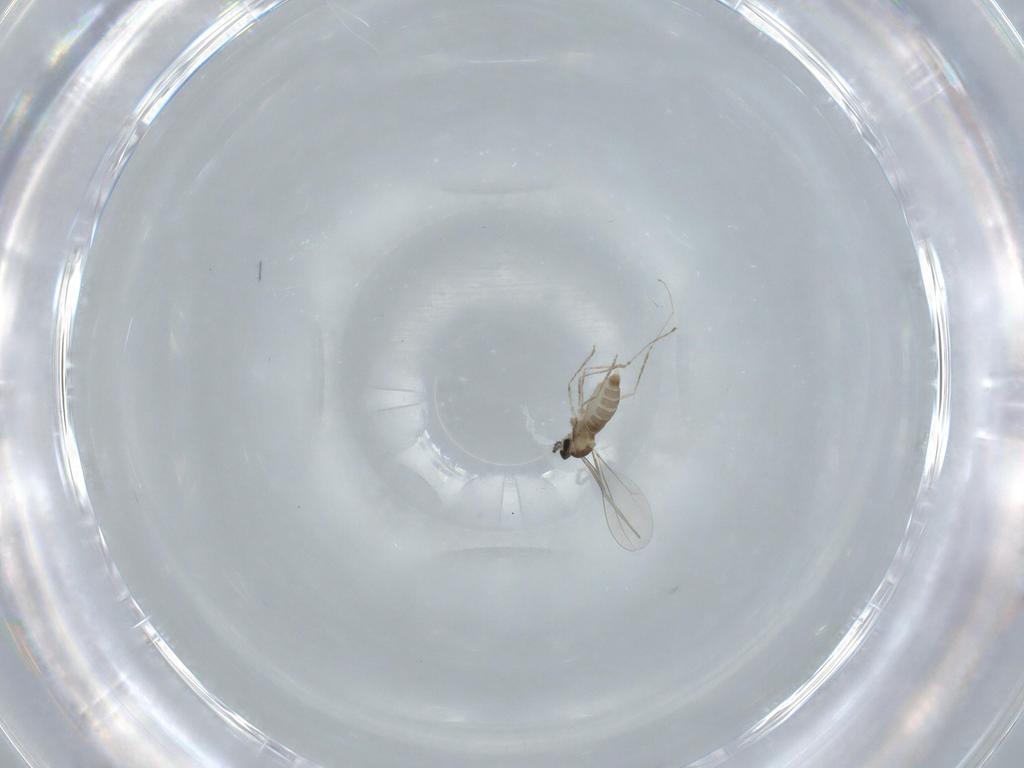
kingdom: Animalia
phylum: Arthropoda
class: Insecta
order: Diptera
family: Cecidomyiidae
